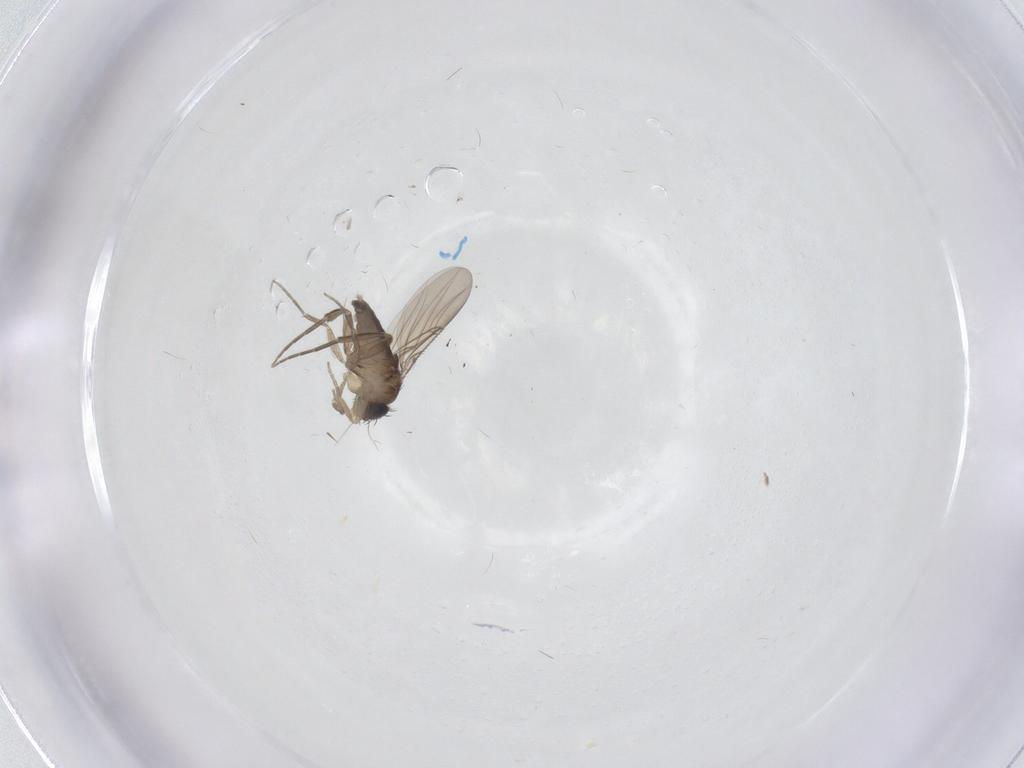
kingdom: Animalia
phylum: Arthropoda
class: Insecta
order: Diptera
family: Phoridae
